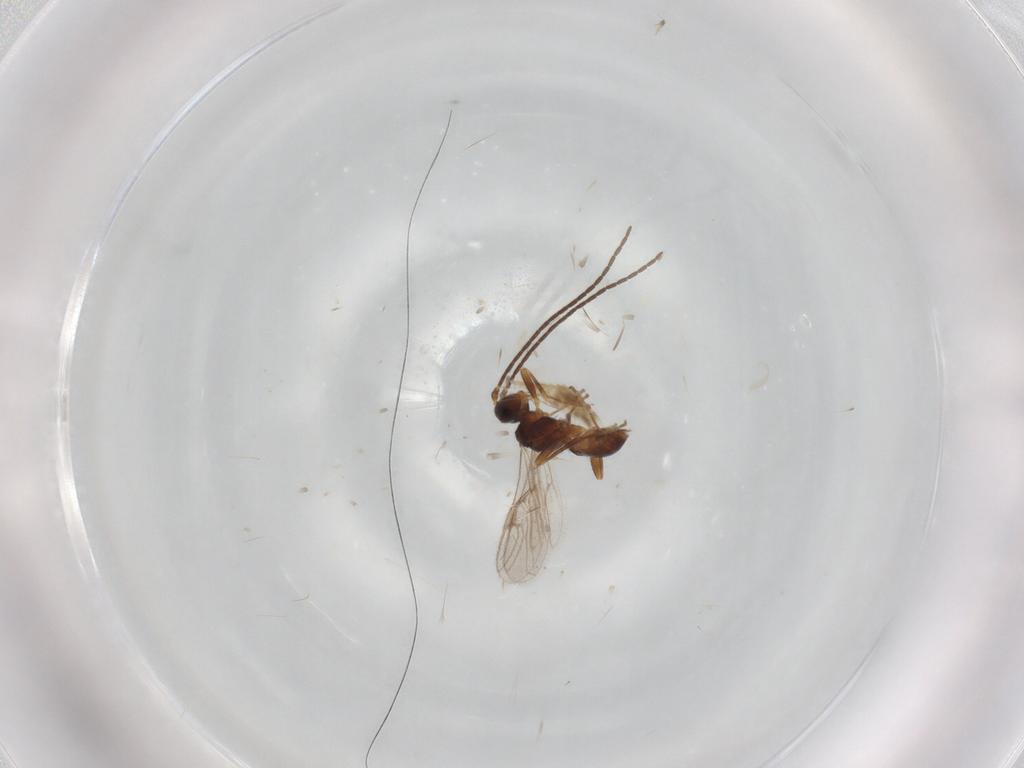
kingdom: Animalia
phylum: Arthropoda
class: Insecta
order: Hymenoptera
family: Braconidae
